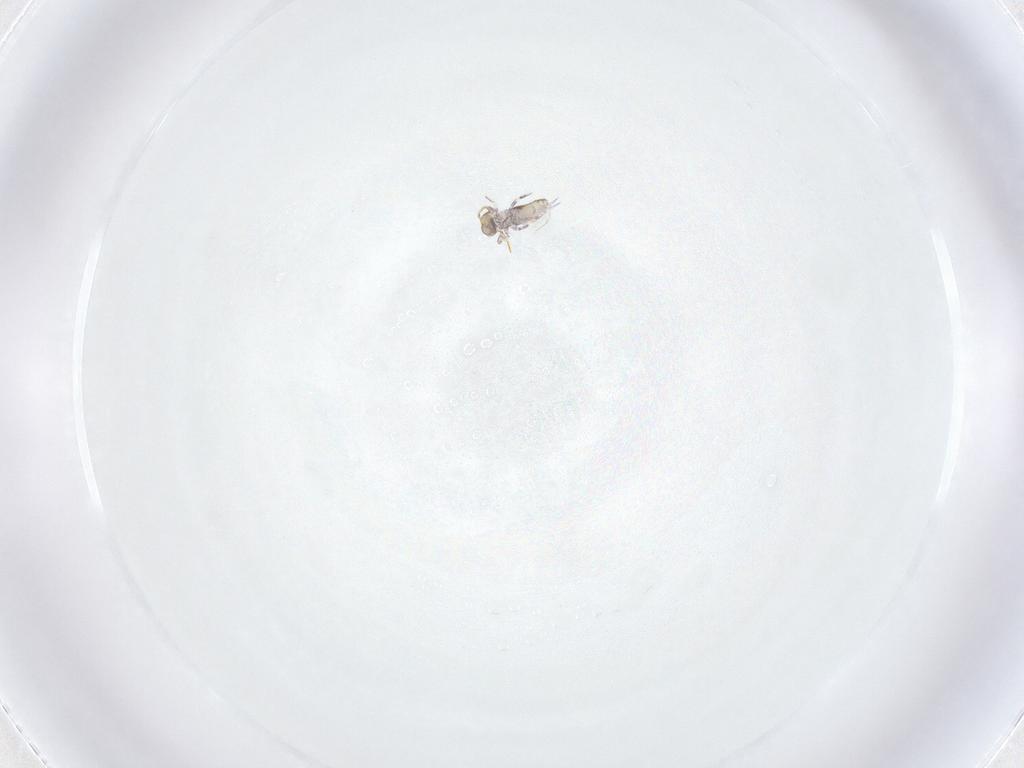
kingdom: Animalia
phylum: Arthropoda
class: Collembola
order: Symphypleona
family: Katiannidae
